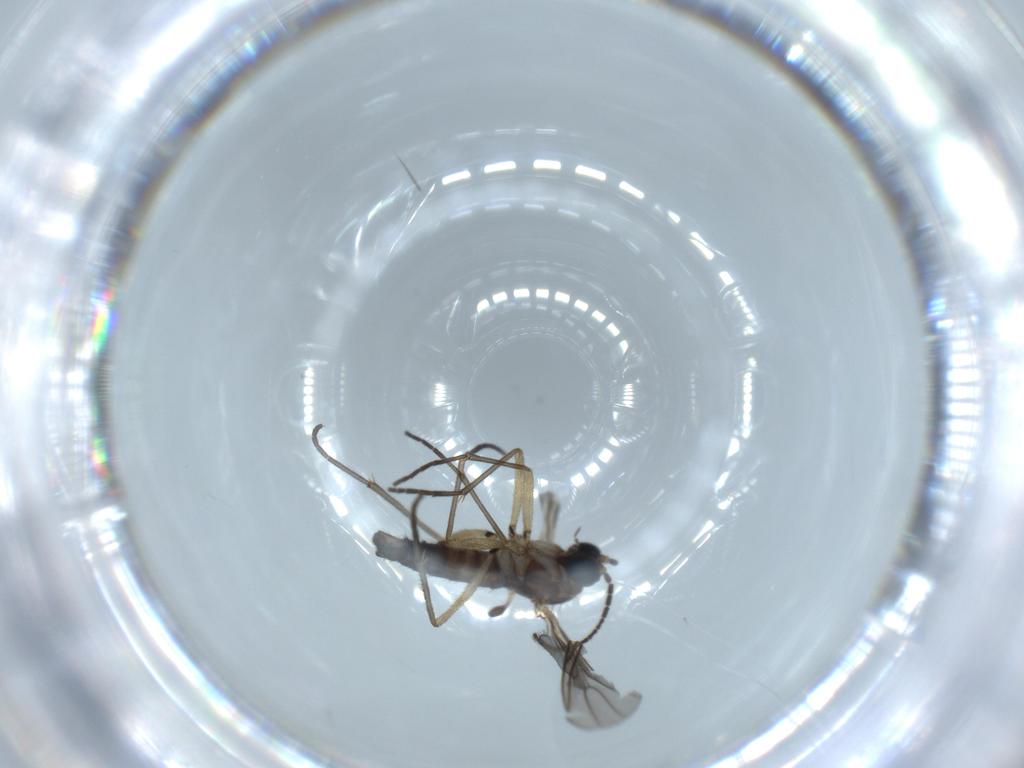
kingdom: Animalia
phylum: Arthropoda
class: Insecta
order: Diptera
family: Sciaridae
